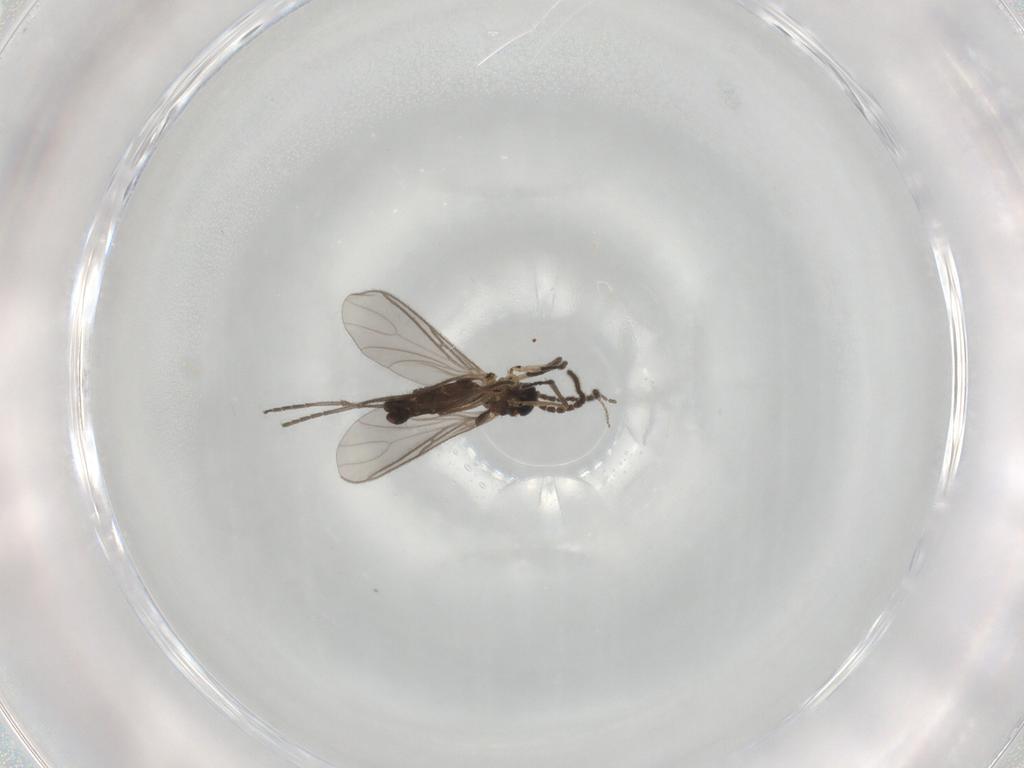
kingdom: Animalia
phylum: Arthropoda
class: Insecta
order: Diptera
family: Sciaridae
